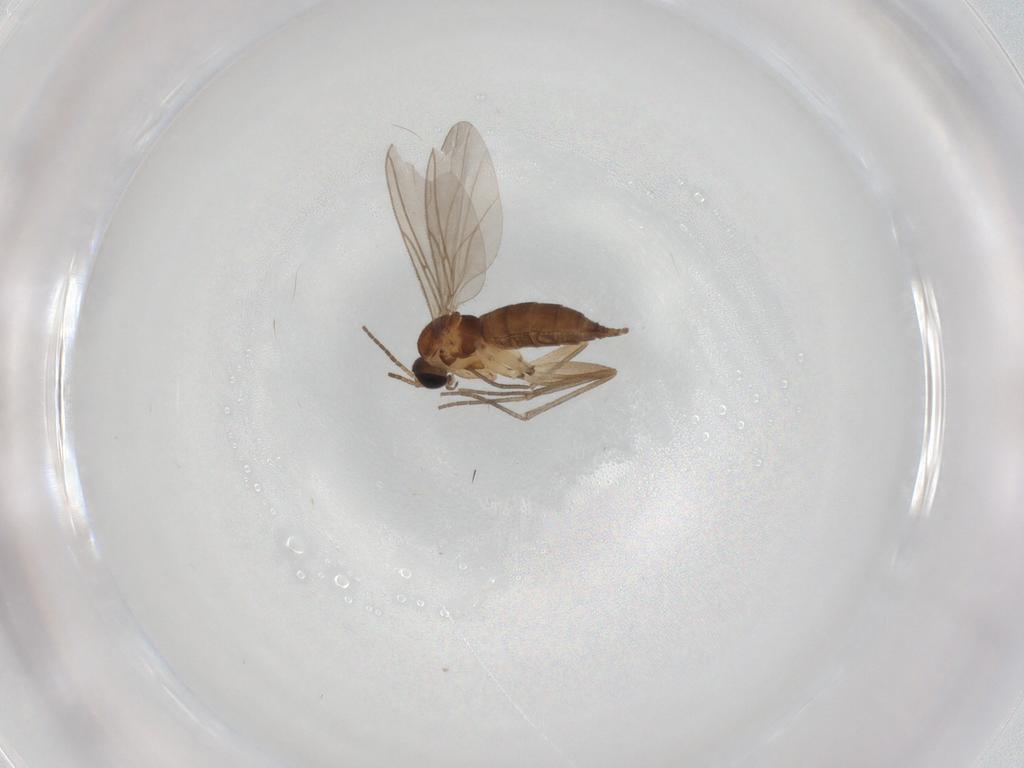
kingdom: Animalia
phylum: Arthropoda
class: Insecta
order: Diptera
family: Sciaridae
